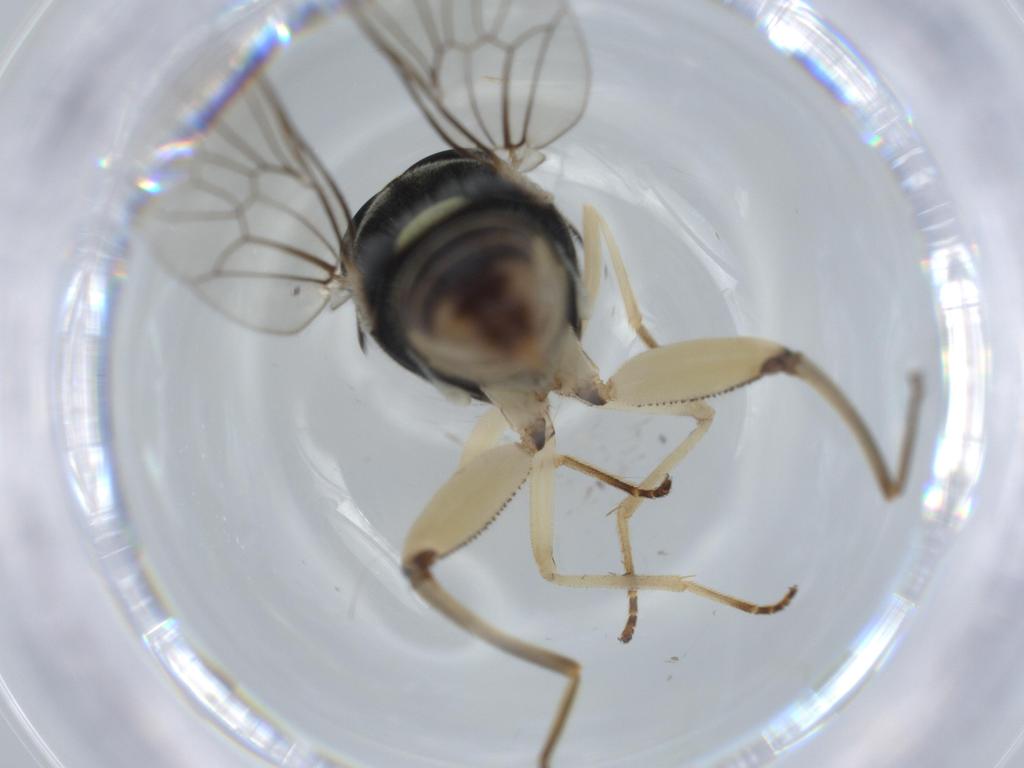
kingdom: Animalia
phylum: Arthropoda
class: Insecta
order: Diptera
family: Xylomyidae
